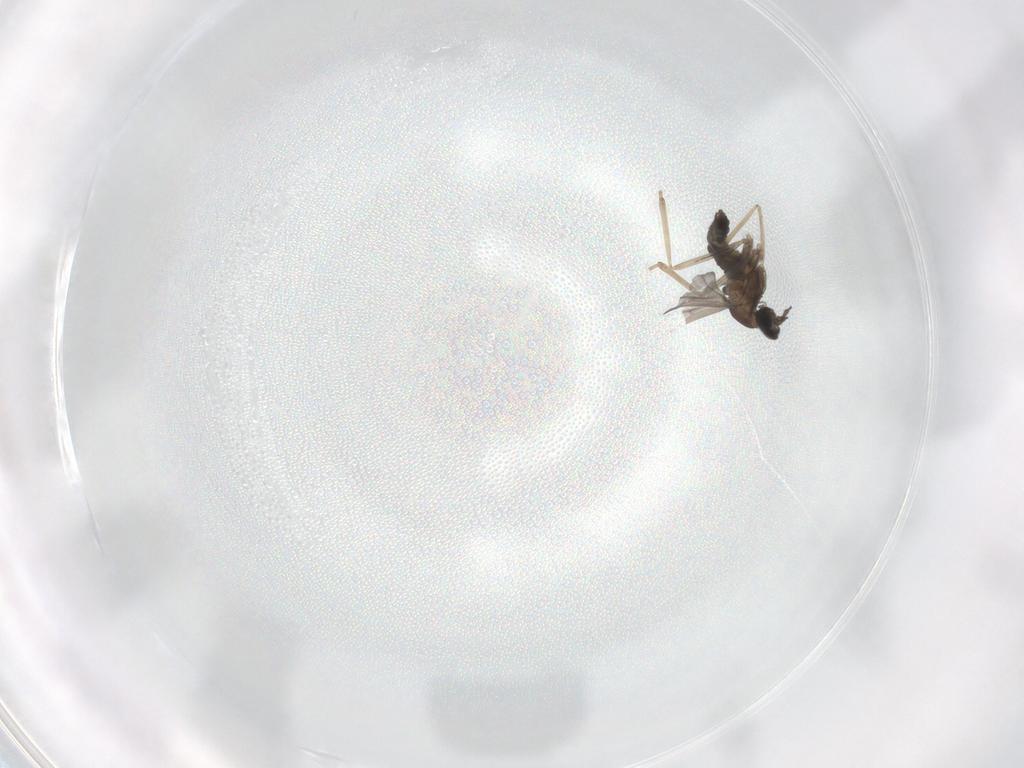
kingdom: Animalia
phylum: Arthropoda
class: Insecta
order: Diptera
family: Cecidomyiidae
